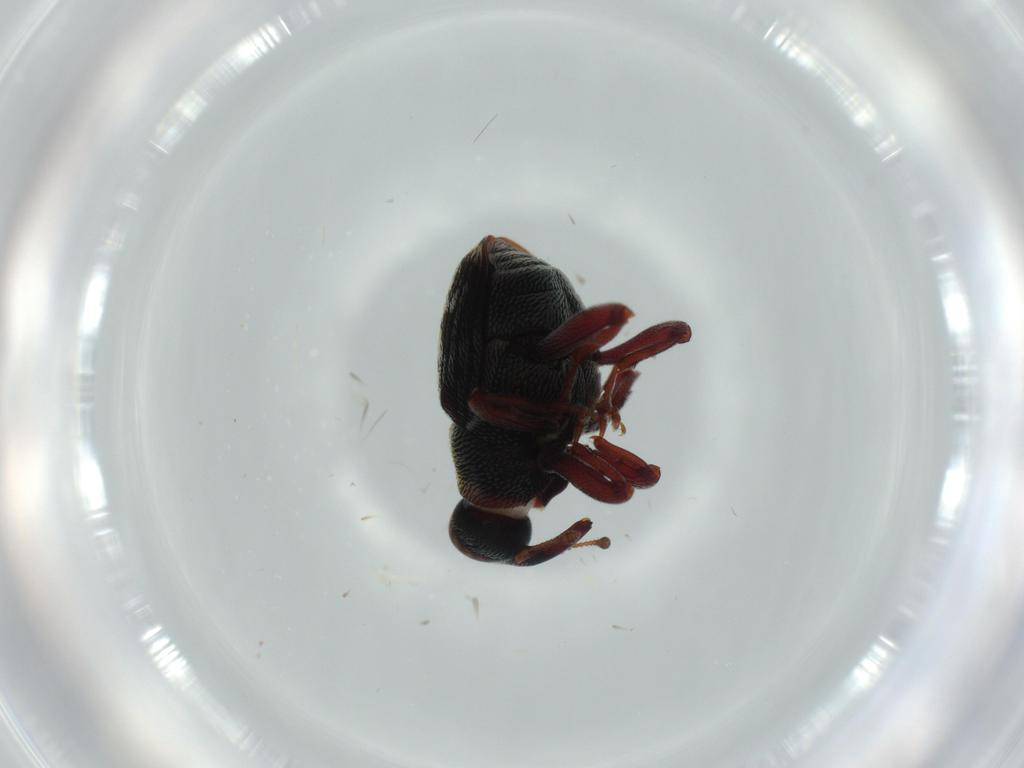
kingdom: Animalia
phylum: Arthropoda
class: Insecta
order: Coleoptera
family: Curculionidae
